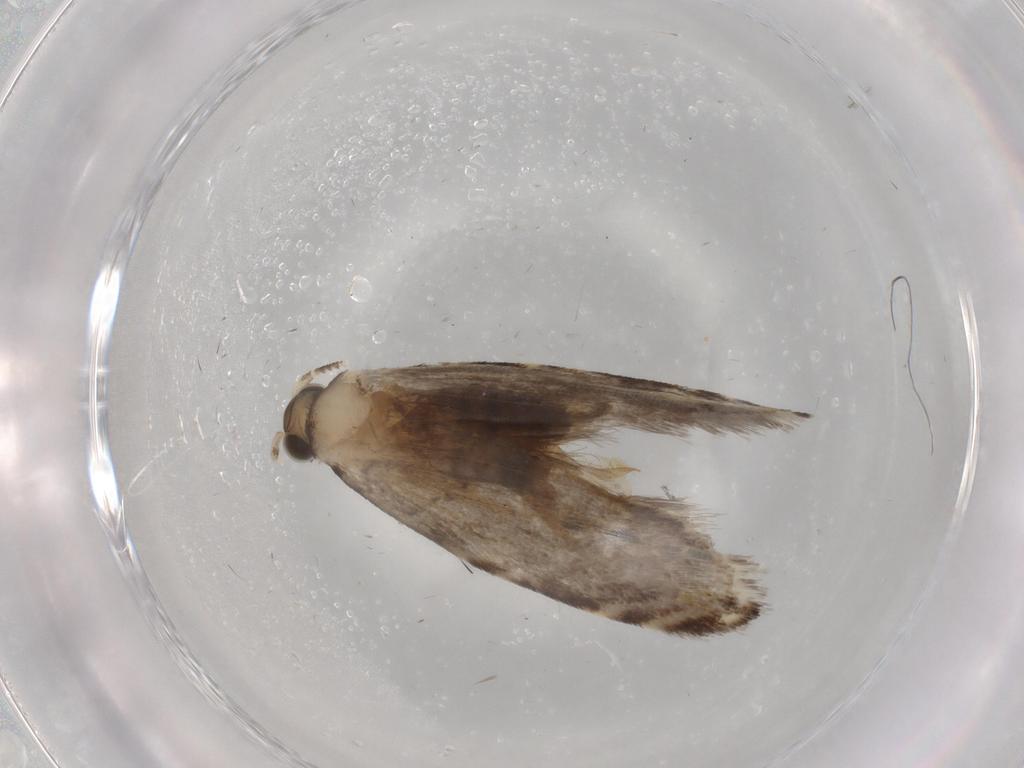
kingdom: Animalia
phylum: Arthropoda
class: Insecta
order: Lepidoptera
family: Tineidae
